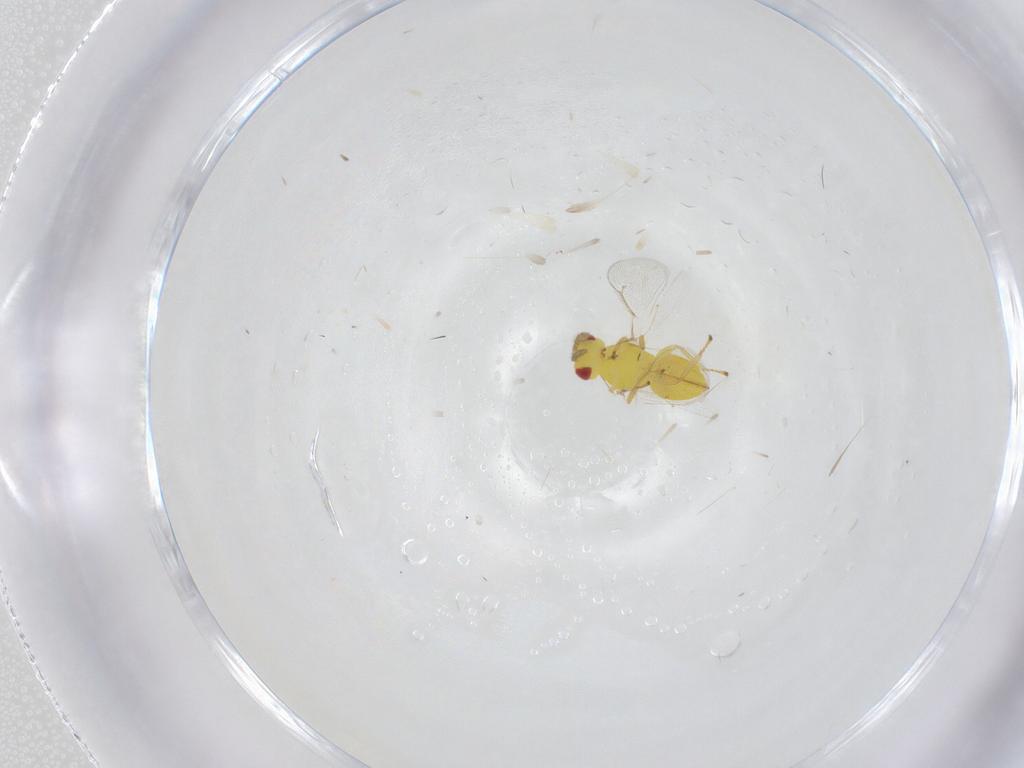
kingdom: Animalia
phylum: Arthropoda
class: Insecta
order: Hymenoptera
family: Eulophidae
